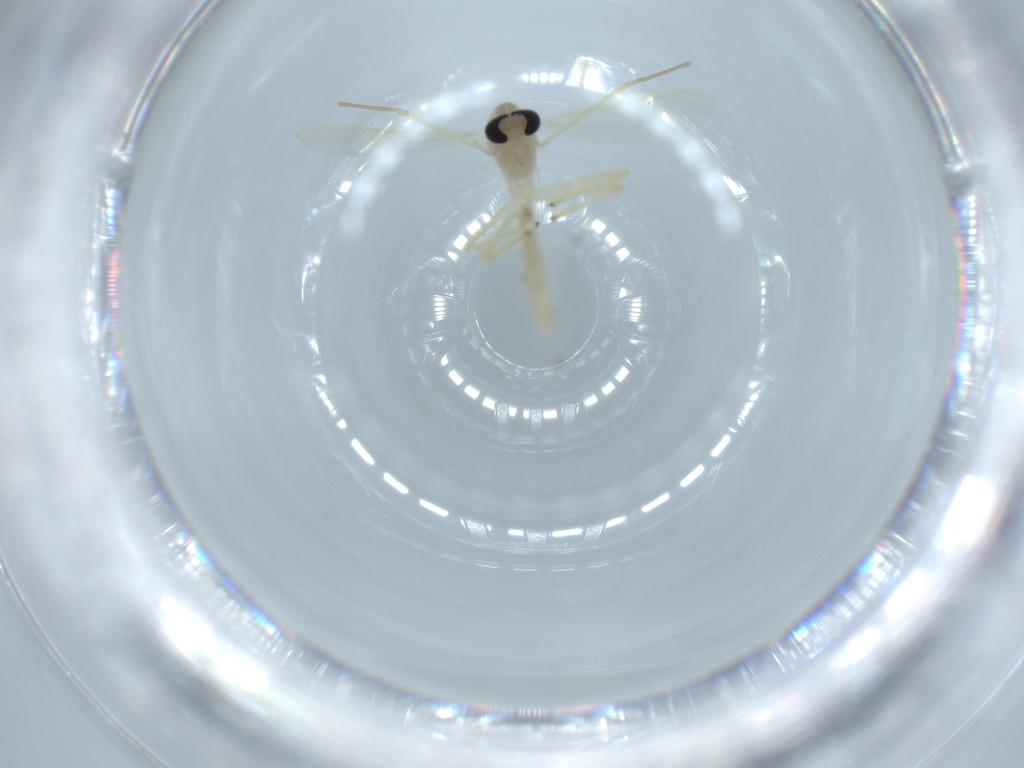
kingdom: Animalia
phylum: Arthropoda
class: Insecta
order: Diptera
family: Chironomidae
